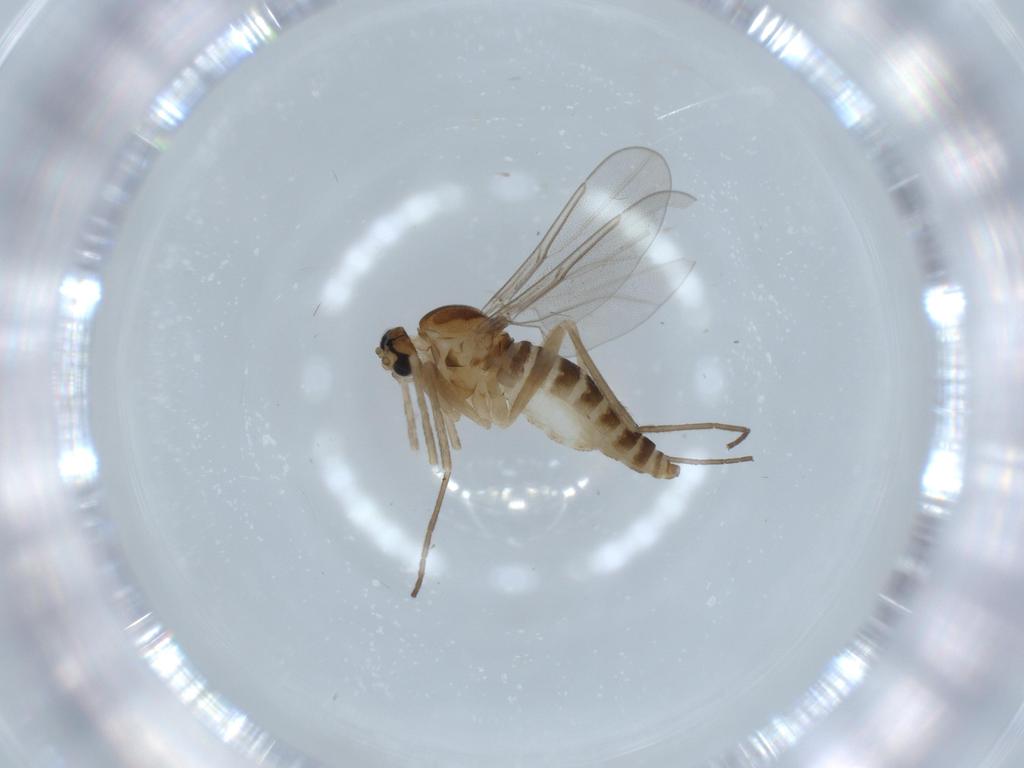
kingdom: Animalia
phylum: Arthropoda
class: Insecta
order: Diptera
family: Cecidomyiidae
